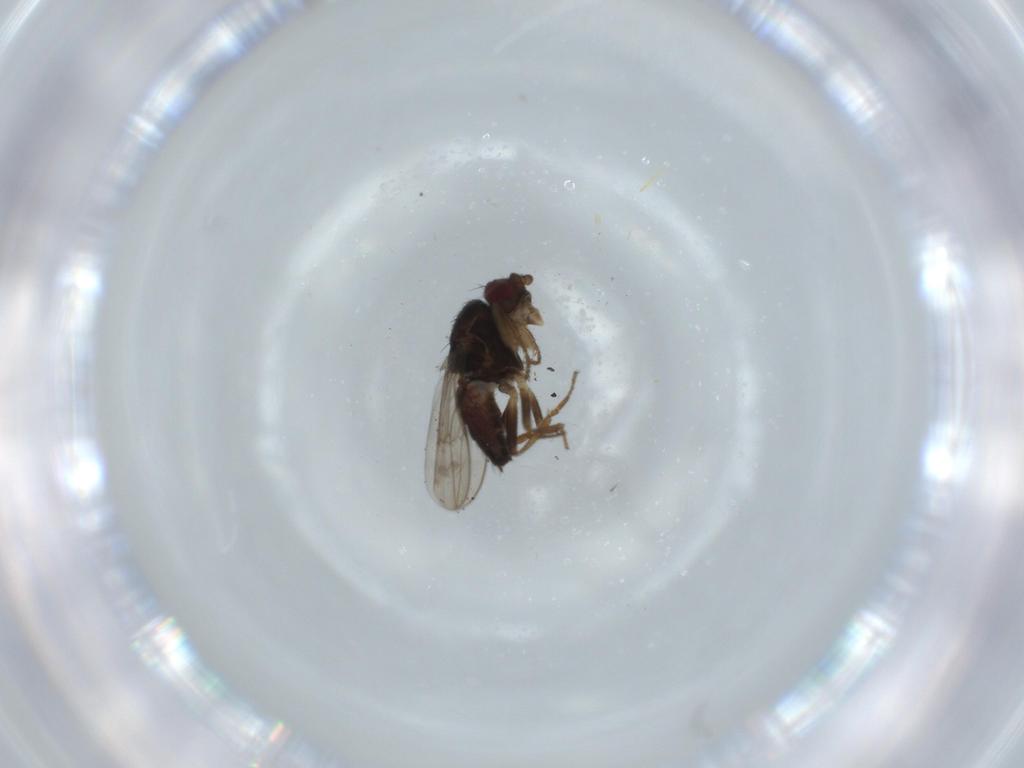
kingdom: Animalia
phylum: Arthropoda
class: Insecta
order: Diptera
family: Sphaeroceridae
